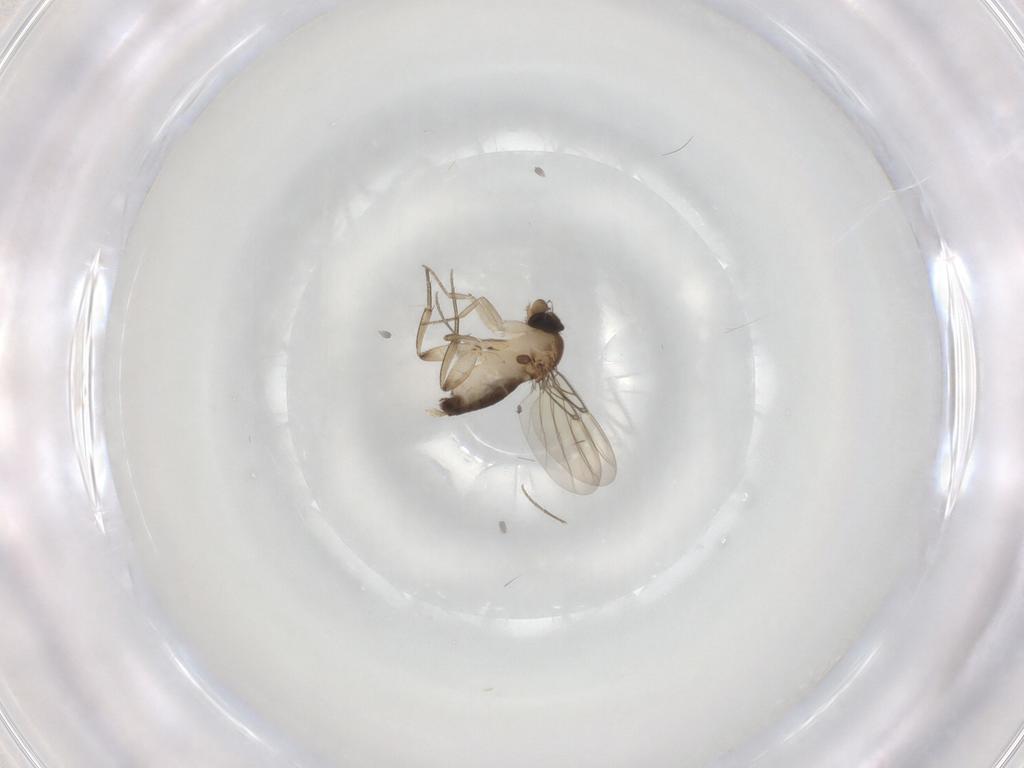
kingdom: Animalia
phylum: Arthropoda
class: Insecta
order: Diptera
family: Phoridae
